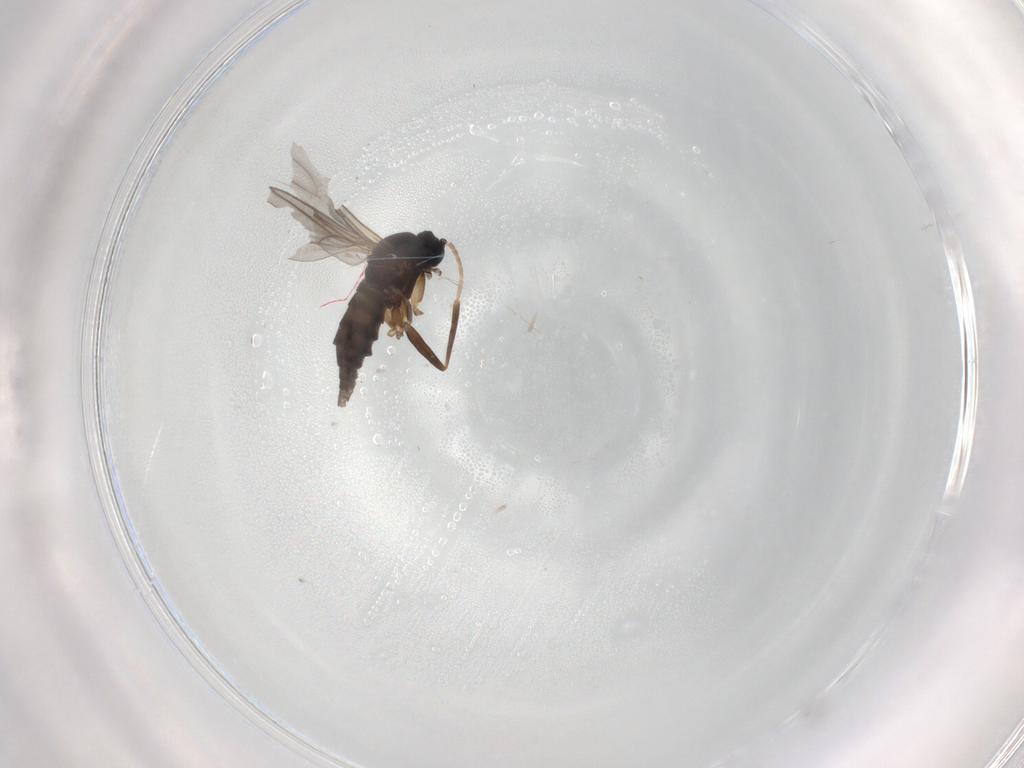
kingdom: Animalia
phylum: Arthropoda
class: Insecta
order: Diptera
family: Sciaridae
